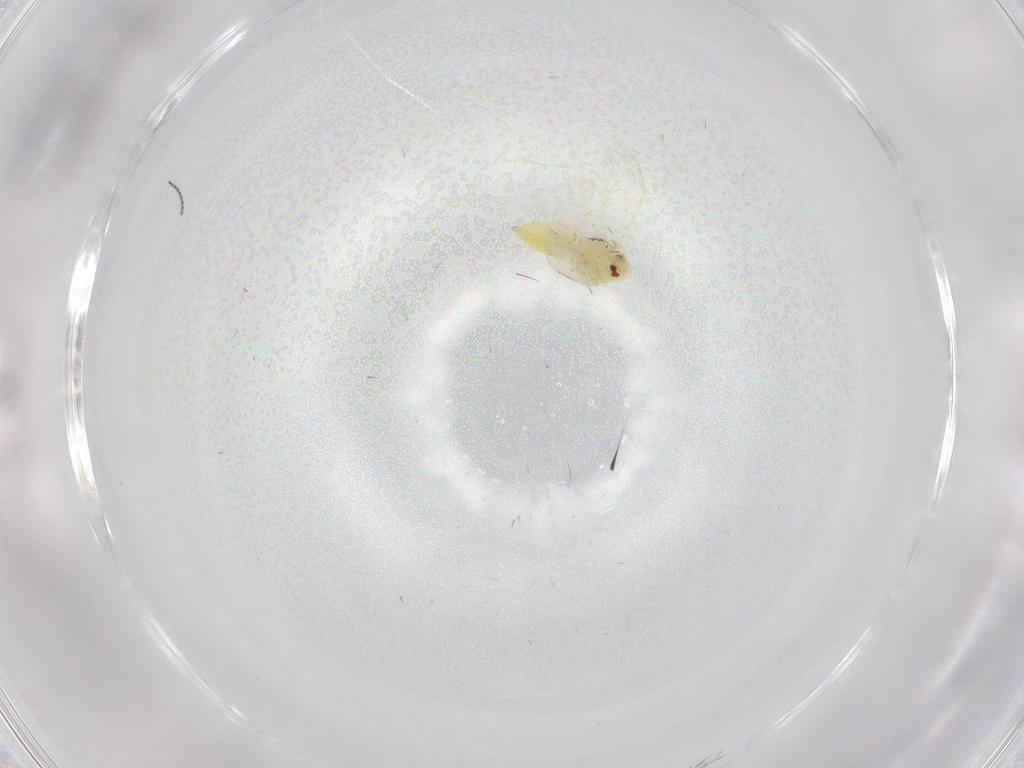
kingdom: Animalia
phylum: Arthropoda
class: Insecta
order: Hemiptera
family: Aleyrodidae
